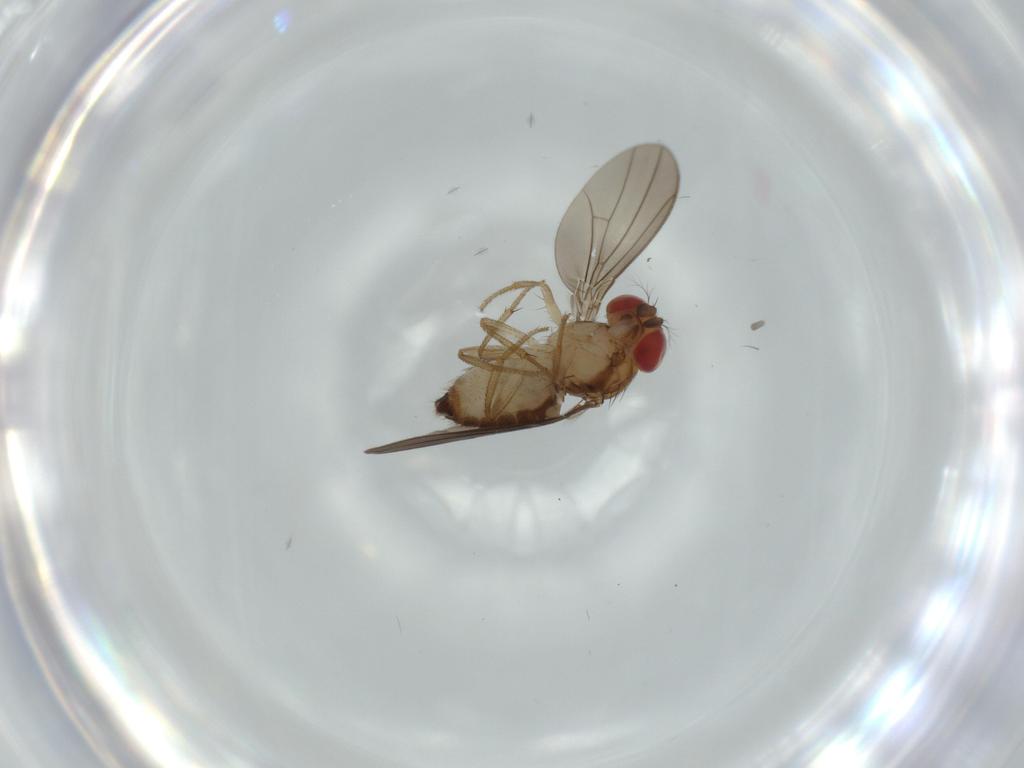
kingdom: Animalia
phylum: Arthropoda
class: Insecta
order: Diptera
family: Drosophilidae
